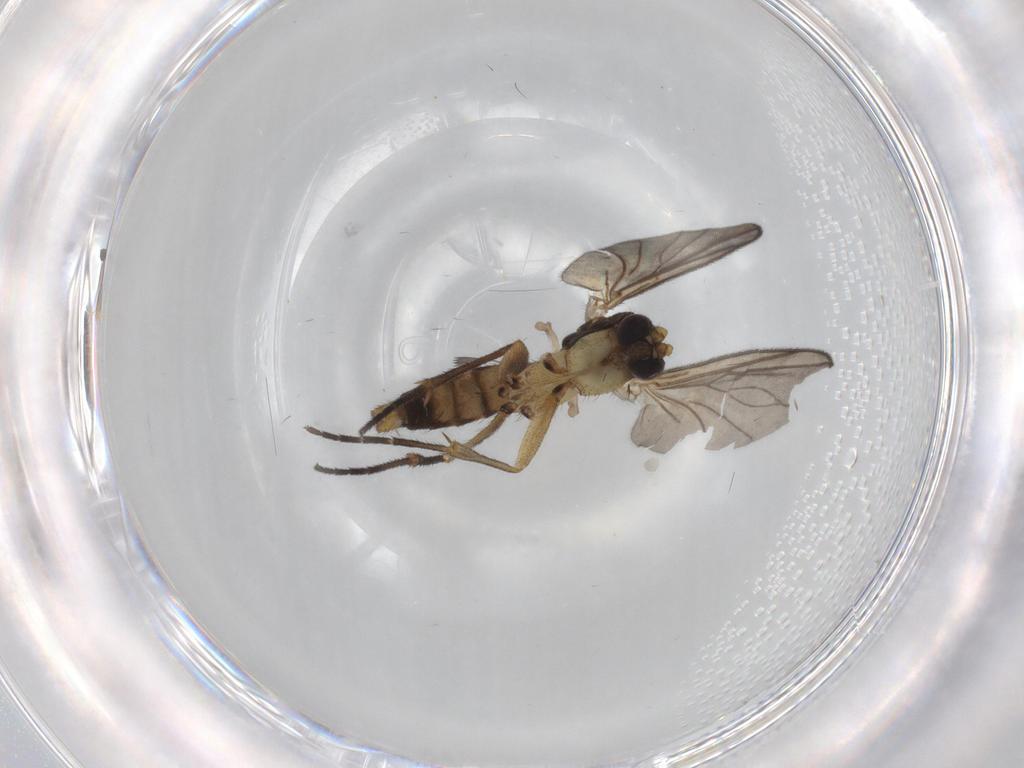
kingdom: Animalia
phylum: Arthropoda
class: Insecta
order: Diptera
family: Mycetophilidae
